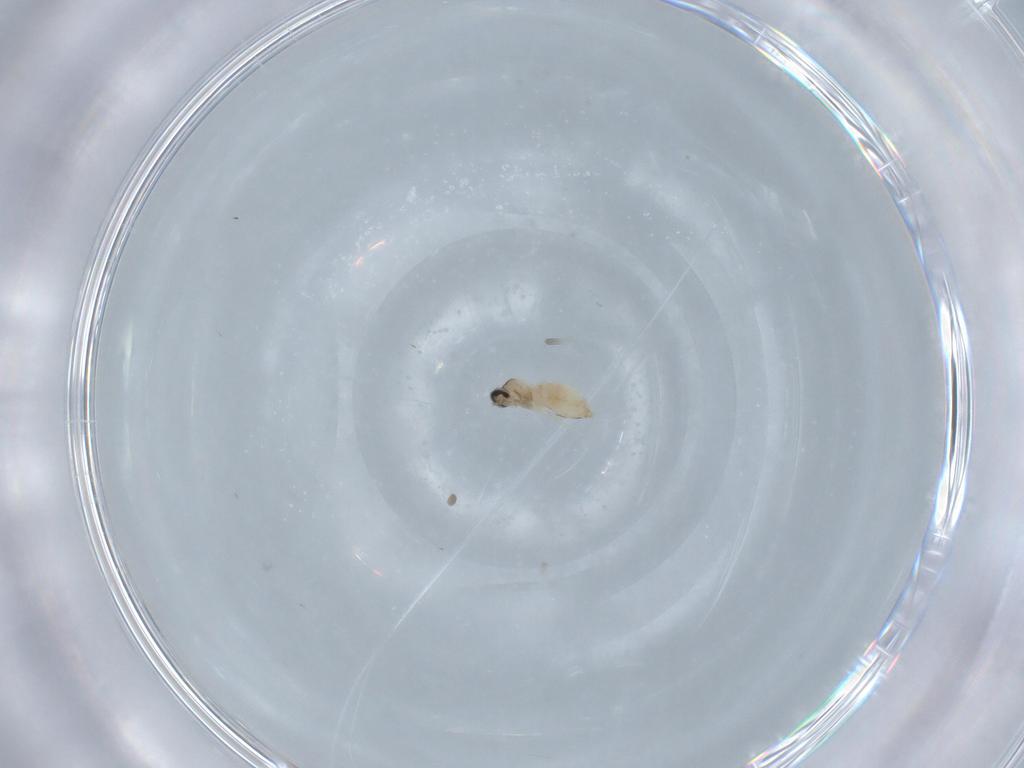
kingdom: Animalia
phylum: Arthropoda
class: Insecta
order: Diptera
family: Cecidomyiidae
